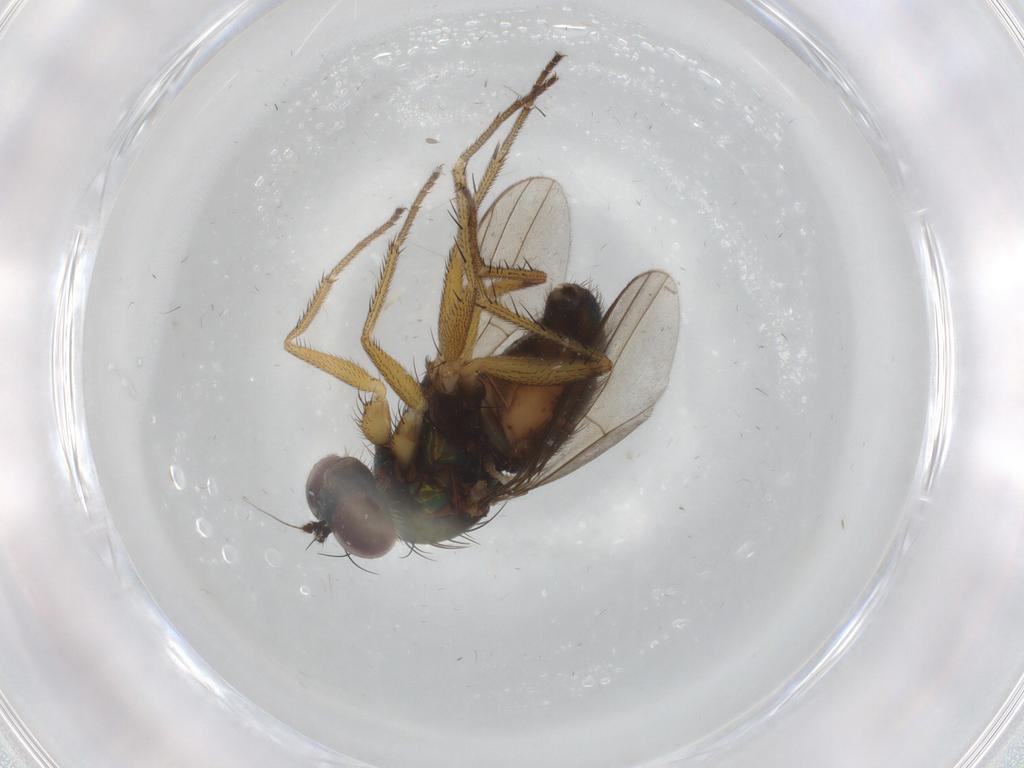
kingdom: Animalia
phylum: Arthropoda
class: Insecta
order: Diptera
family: Dolichopodidae
